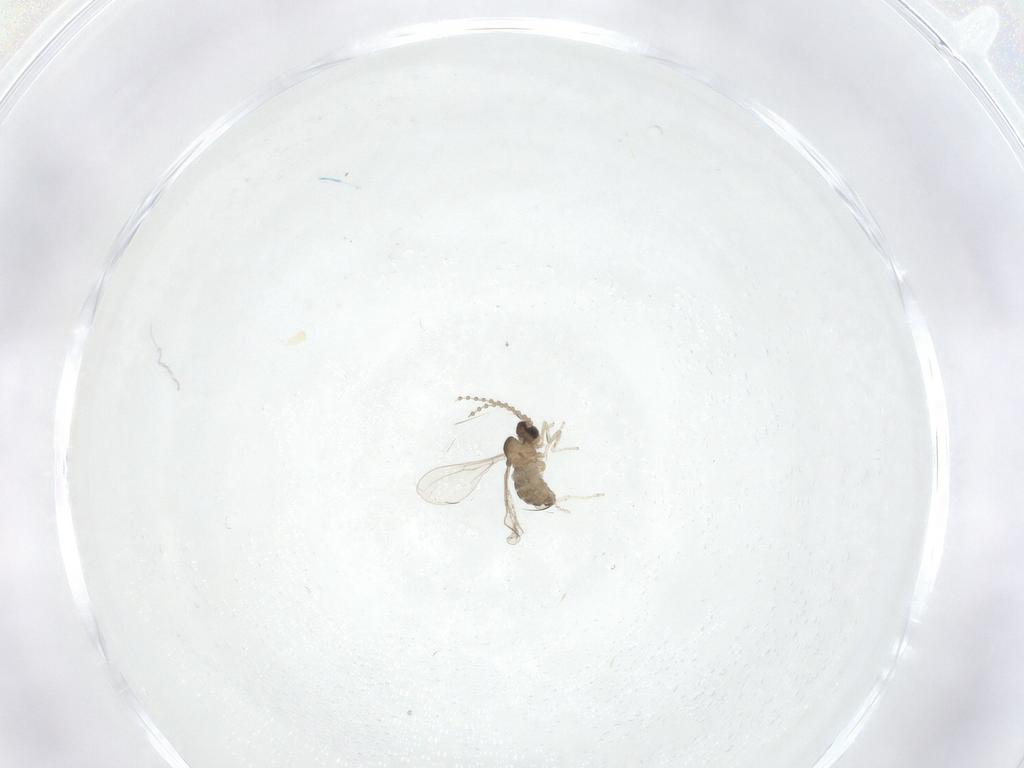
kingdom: Animalia
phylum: Arthropoda
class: Insecta
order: Diptera
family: Cecidomyiidae
